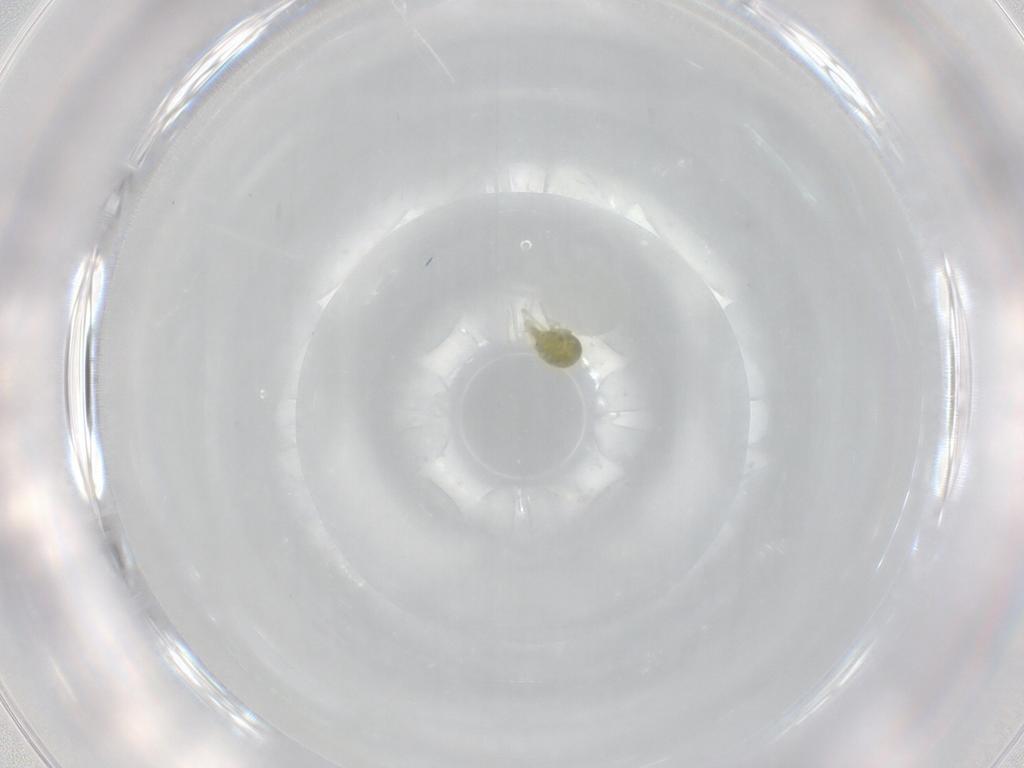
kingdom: Animalia
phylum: Arthropoda
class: Arachnida
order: Trombidiformes
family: Penthaleidae
